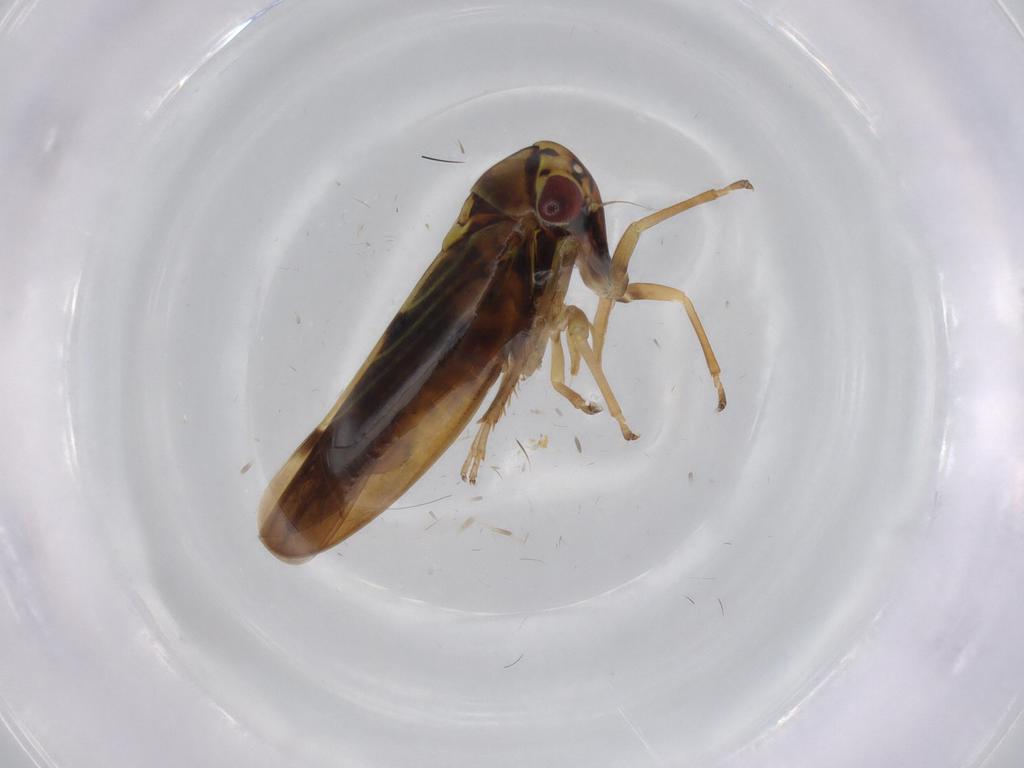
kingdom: Animalia
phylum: Arthropoda
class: Insecta
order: Hemiptera
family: Cicadellidae
